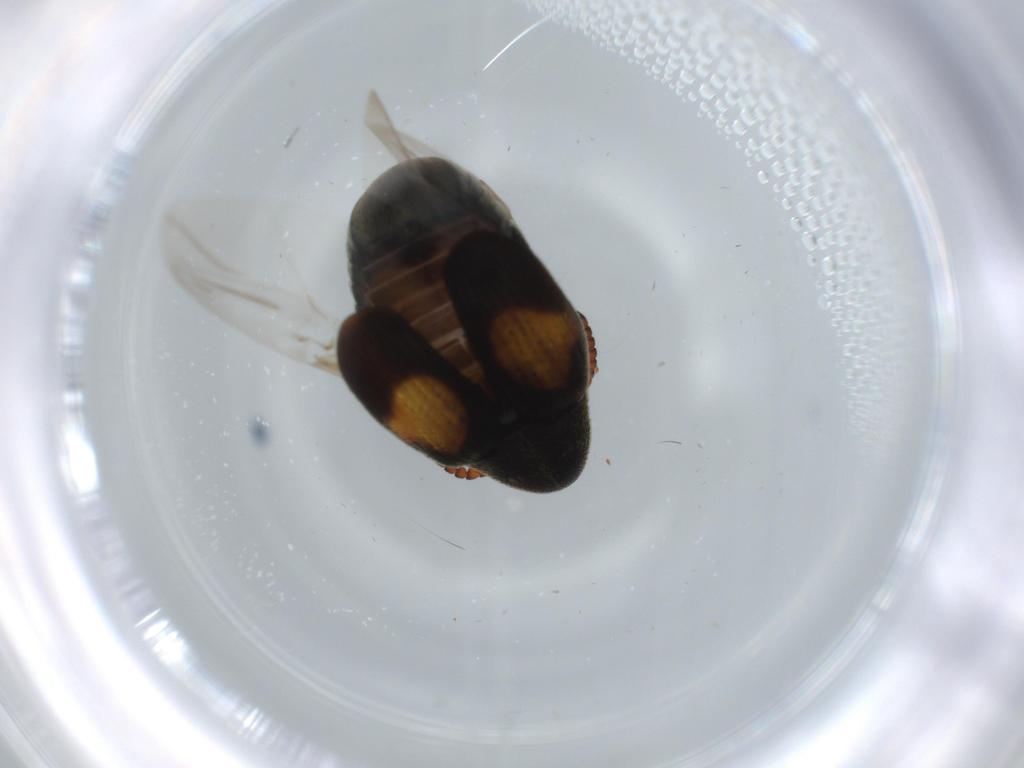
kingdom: Animalia
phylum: Arthropoda
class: Insecta
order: Coleoptera
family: Chrysomelidae
